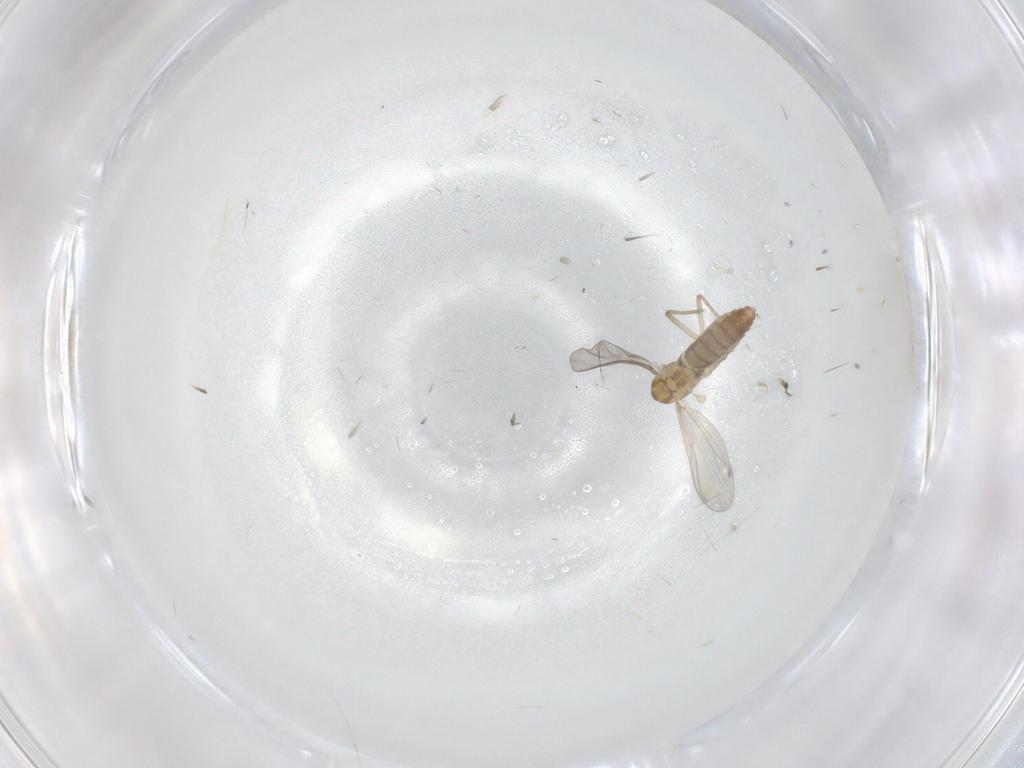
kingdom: Animalia
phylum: Arthropoda
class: Insecta
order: Diptera
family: Chironomidae
